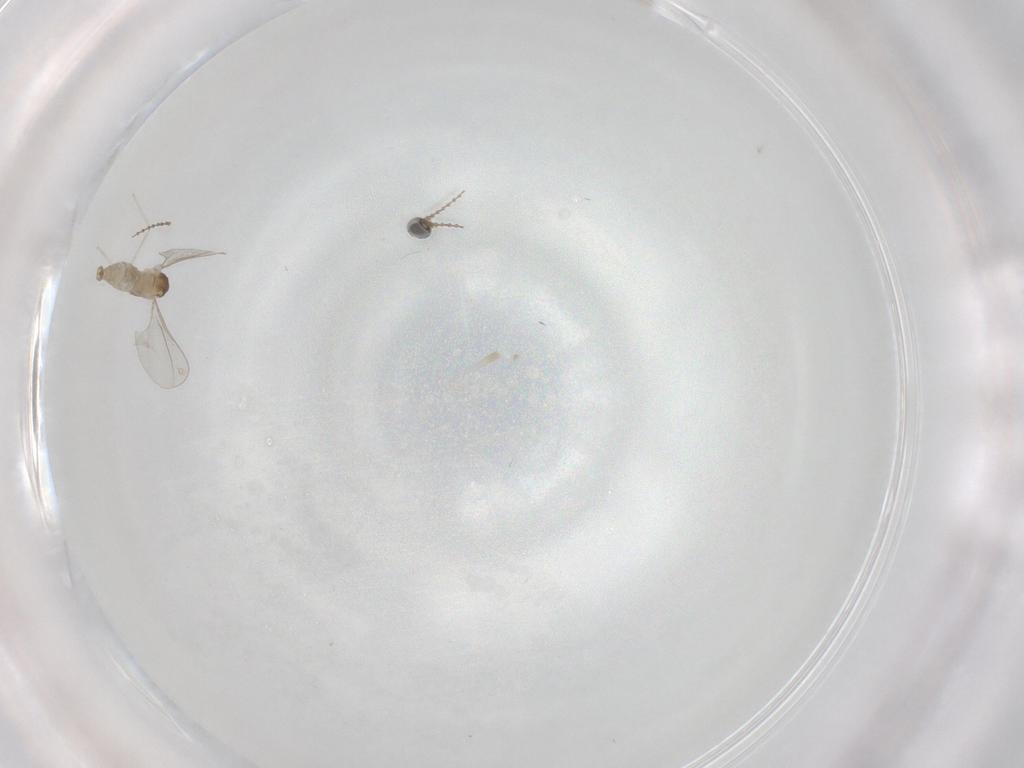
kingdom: Animalia
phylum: Arthropoda
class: Insecta
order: Diptera
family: Cecidomyiidae
